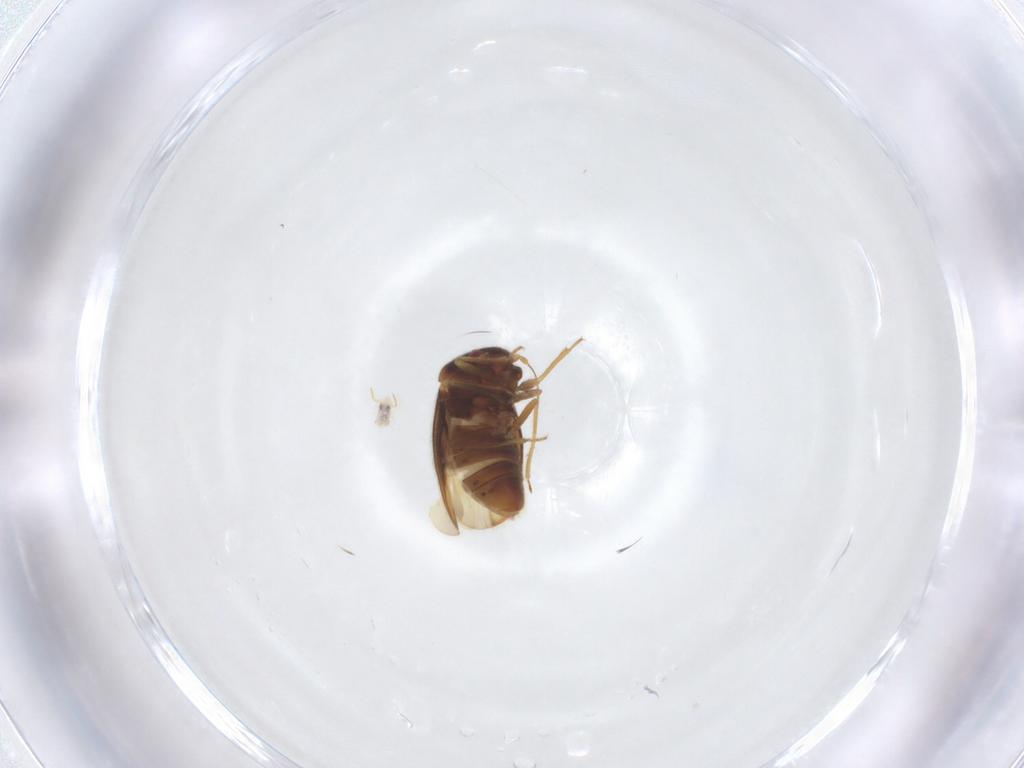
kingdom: Animalia
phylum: Arthropoda
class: Insecta
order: Hemiptera
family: Schizopteridae
